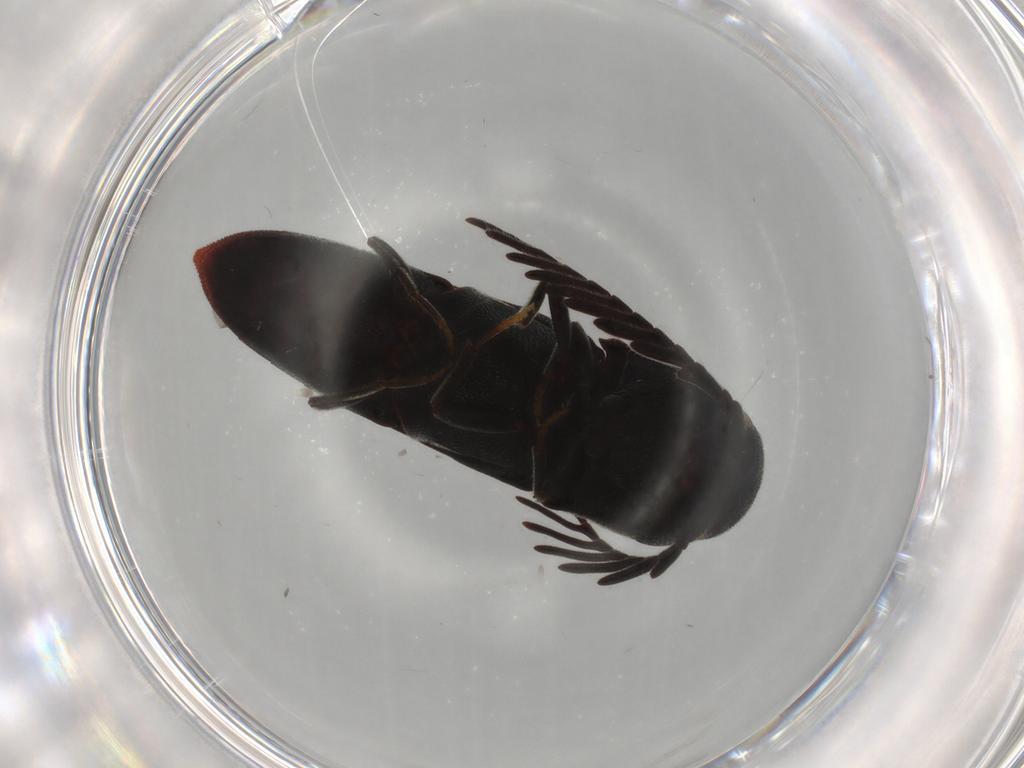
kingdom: Animalia
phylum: Arthropoda
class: Insecta
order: Coleoptera
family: Eucnemidae
